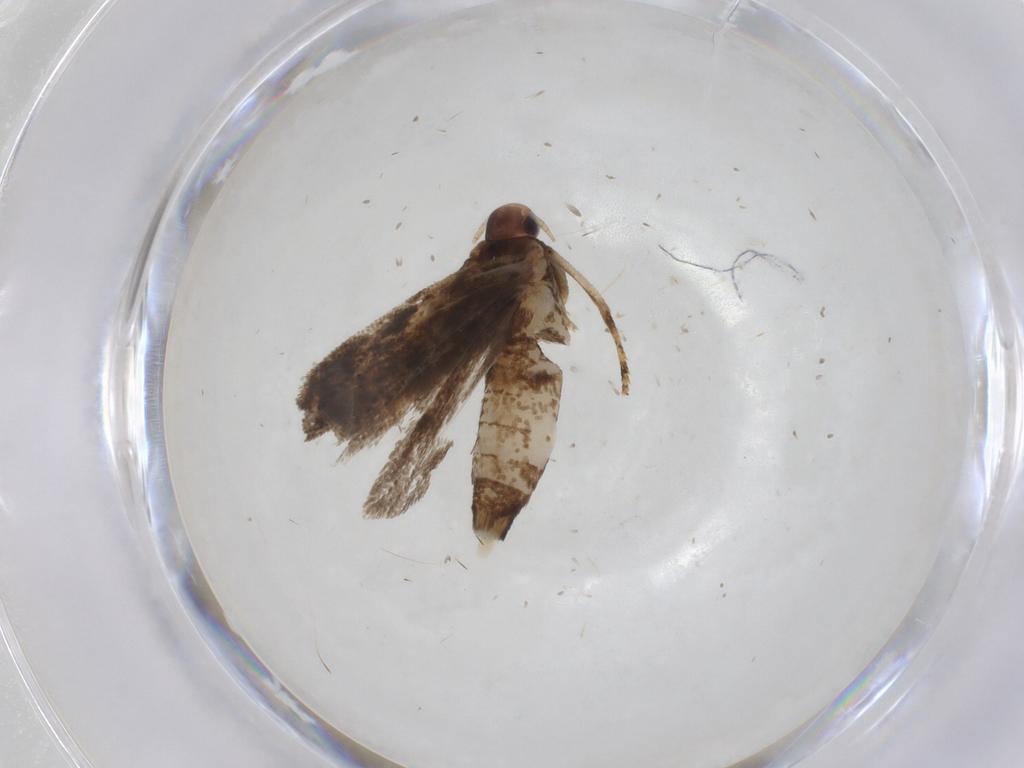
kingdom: Animalia
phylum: Arthropoda
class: Insecta
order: Lepidoptera
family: Gelechiidae
